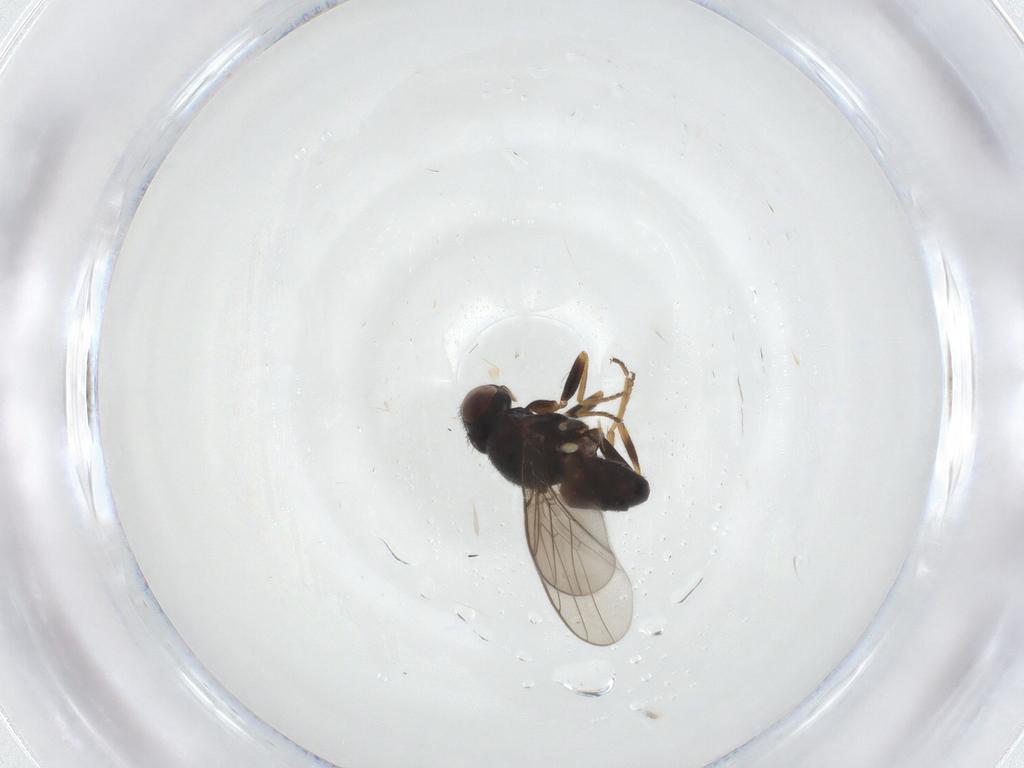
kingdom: Animalia
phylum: Arthropoda
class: Insecta
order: Diptera
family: Chloropidae
